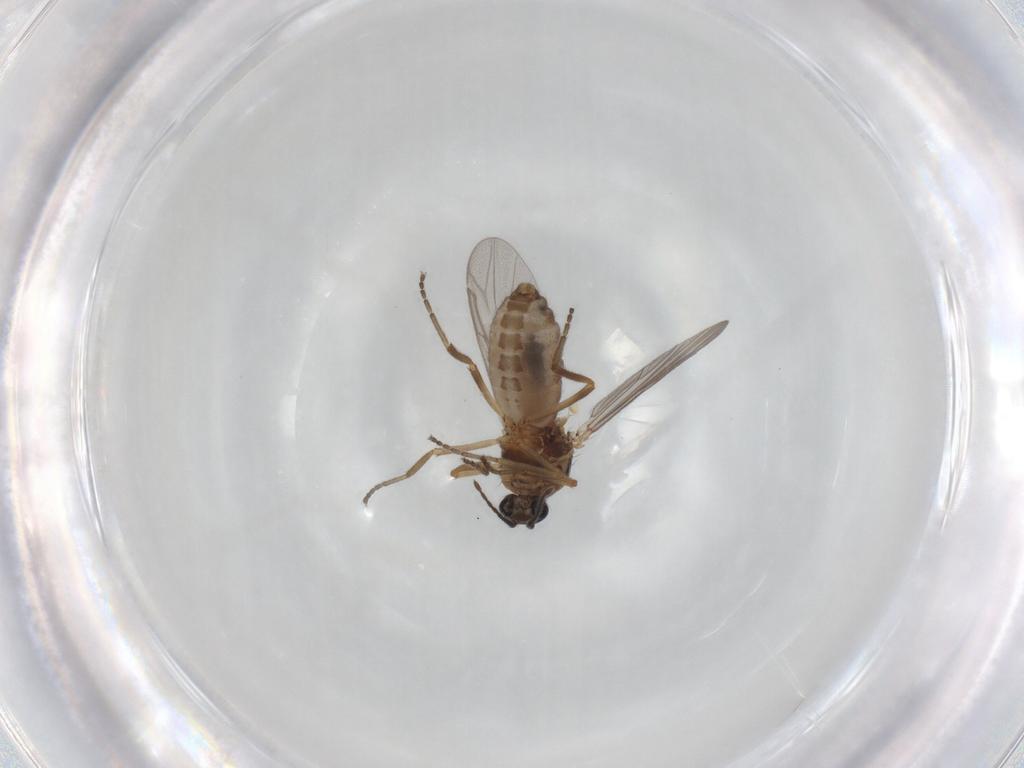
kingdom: Animalia
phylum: Arthropoda
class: Insecta
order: Diptera
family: Ceratopogonidae
